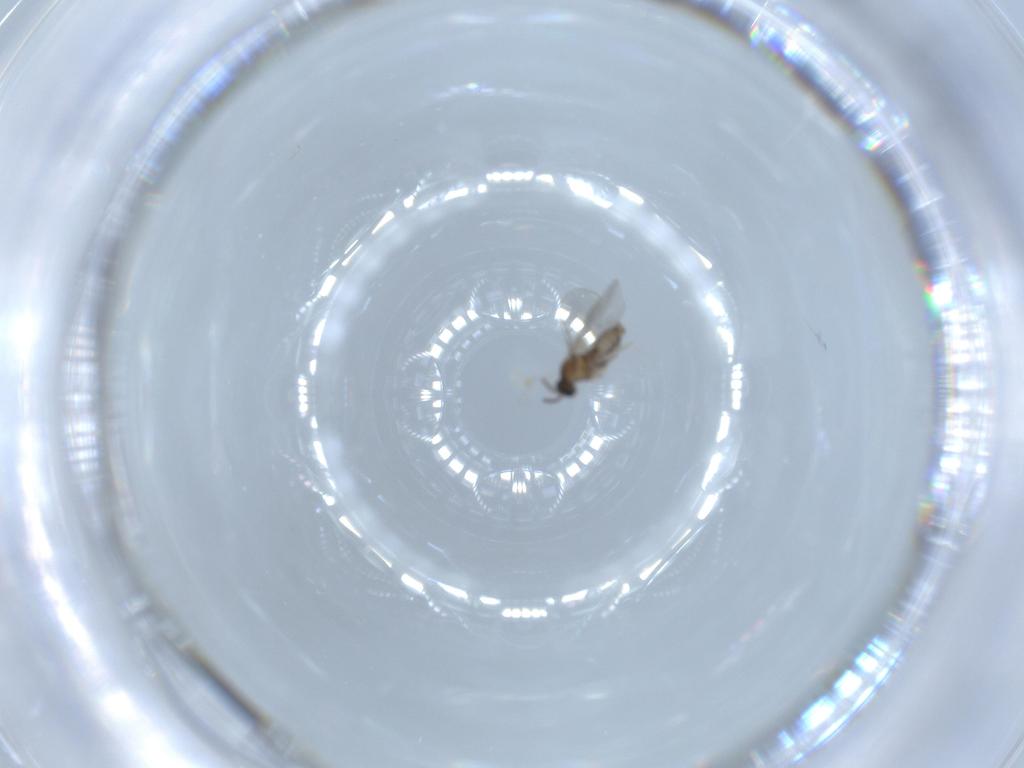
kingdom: Animalia
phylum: Arthropoda
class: Insecta
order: Diptera
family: Cecidomyiidae
